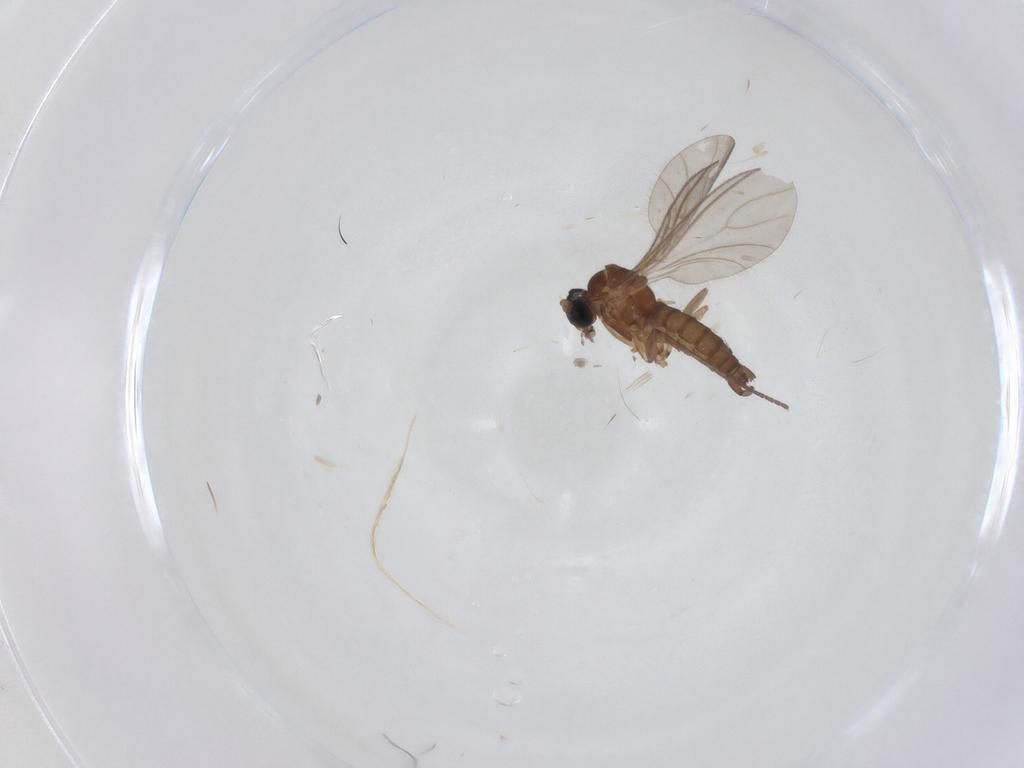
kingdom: Animalia
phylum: Arthropoda
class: Insecta
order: Diptera
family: Sciaridae
